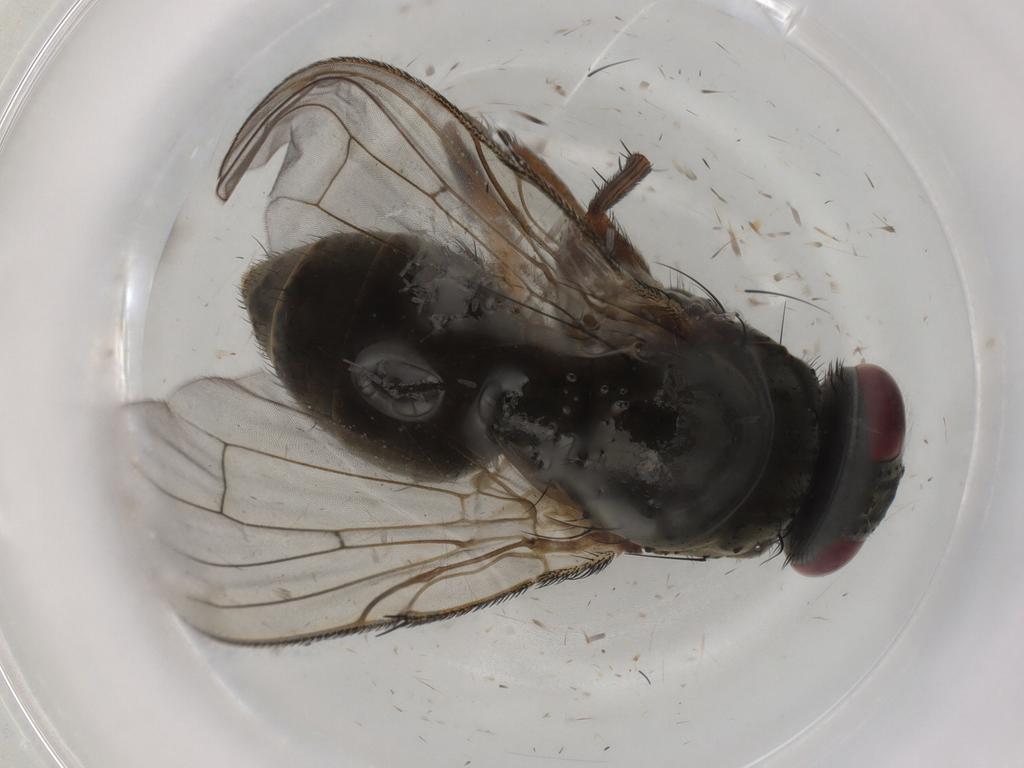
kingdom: Animalia
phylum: Arthropoda
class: Insecta
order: Diptera
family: Muscidae
